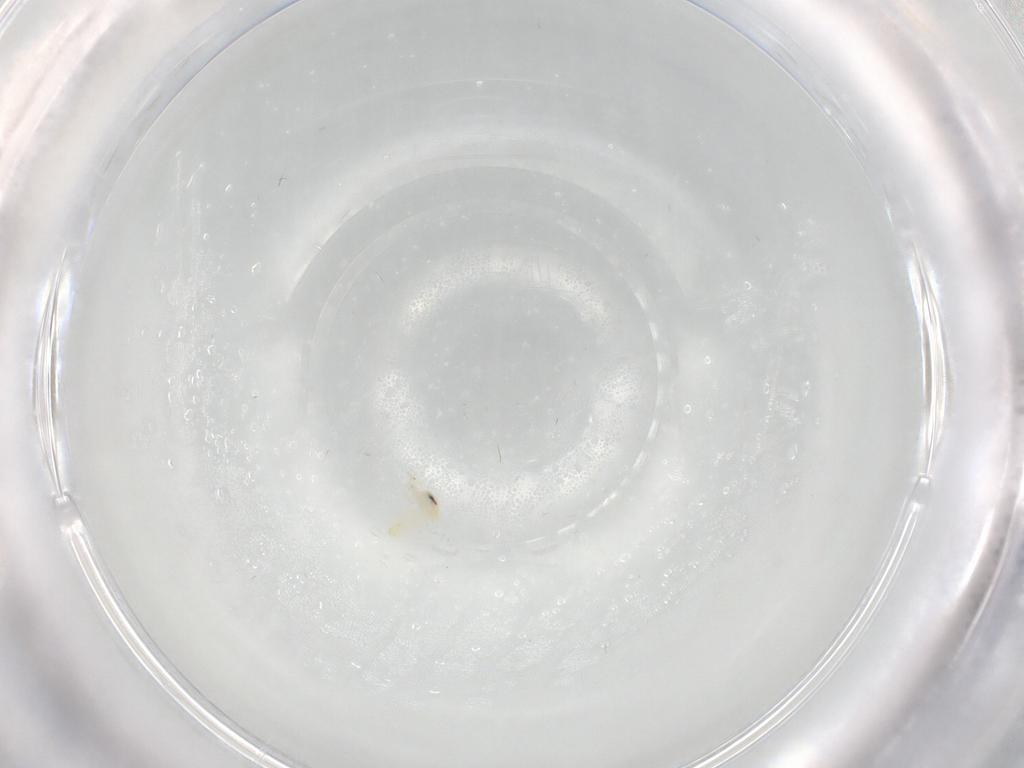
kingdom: Animalia
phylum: Arthropoda
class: Insecta
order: Hemiptera
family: Aleyrodidae
